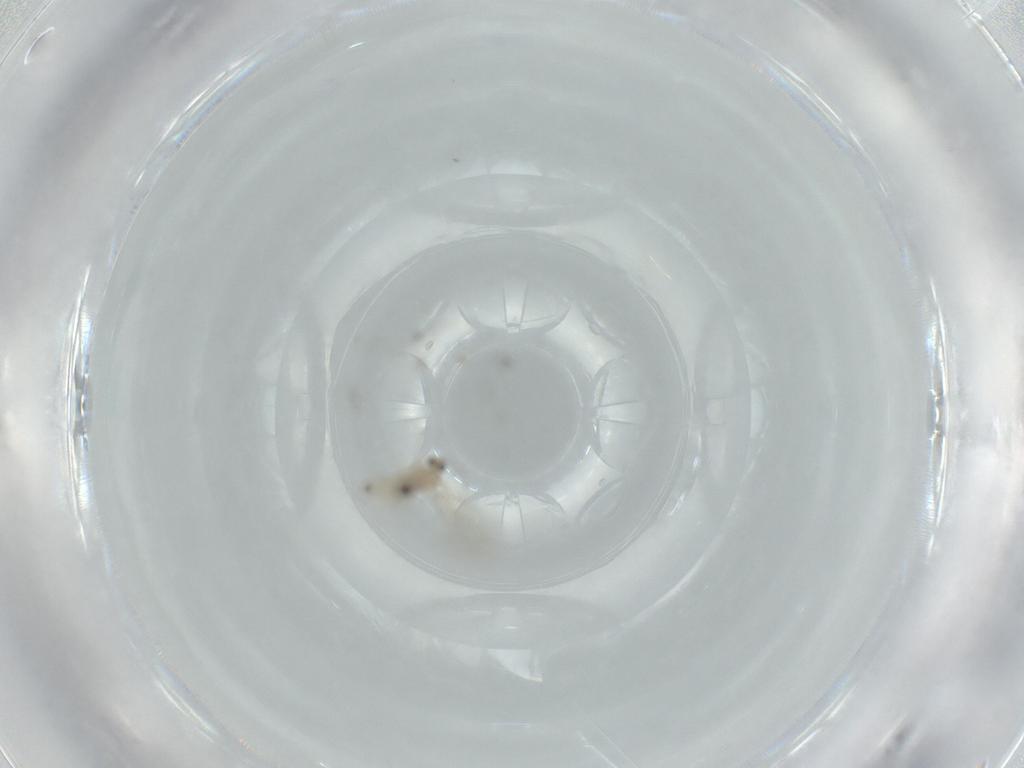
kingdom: Animalia
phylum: Arthropoda
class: Insecta
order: Diptera
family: Cecidomyiidae
